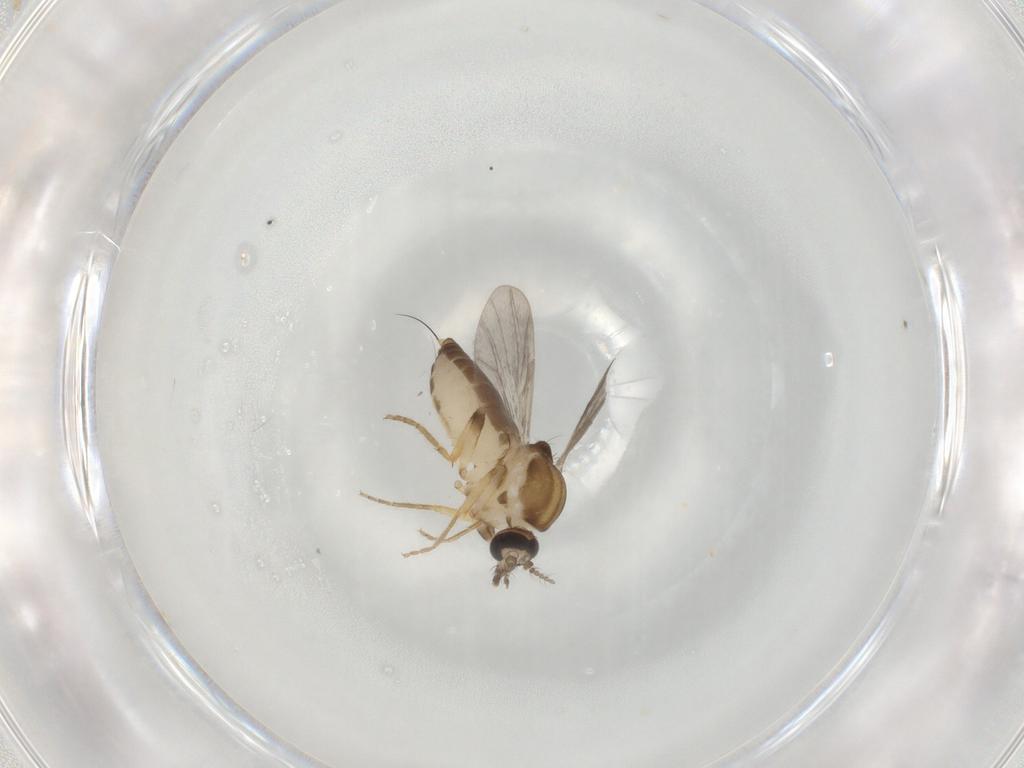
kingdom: Animalia
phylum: Arthropoda
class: Insecta
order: Diptera
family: Ceratopogonidae
